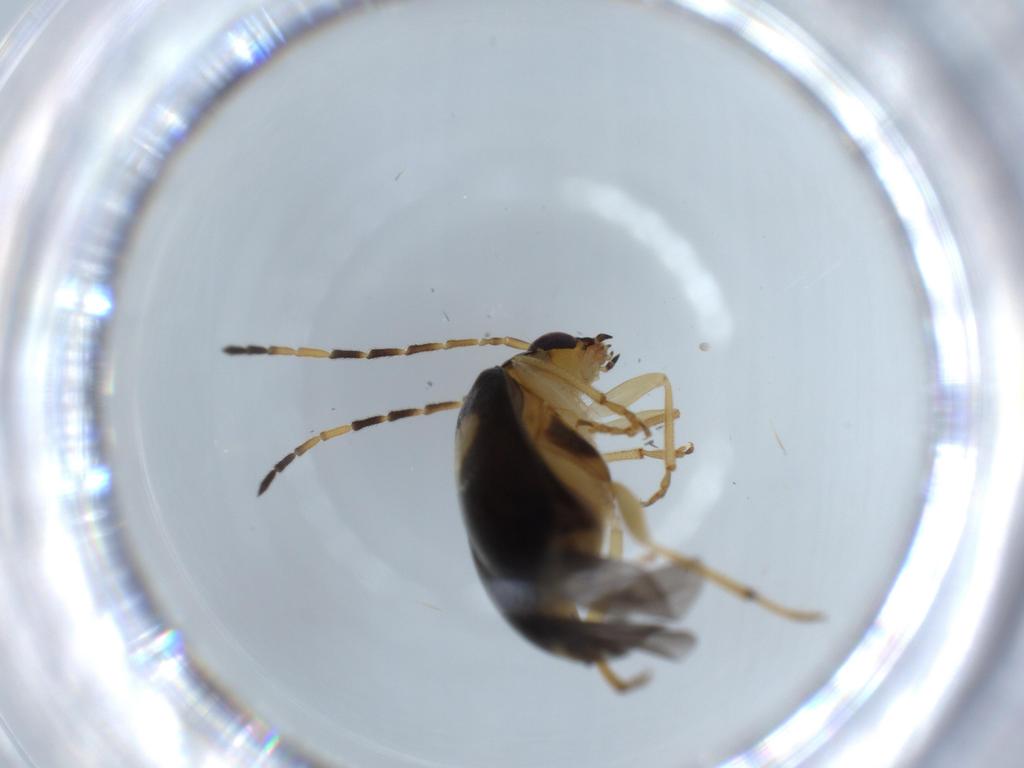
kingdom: Animalia
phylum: Arthropoda
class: Insecta
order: Coleoptera
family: Chrysomelidae
